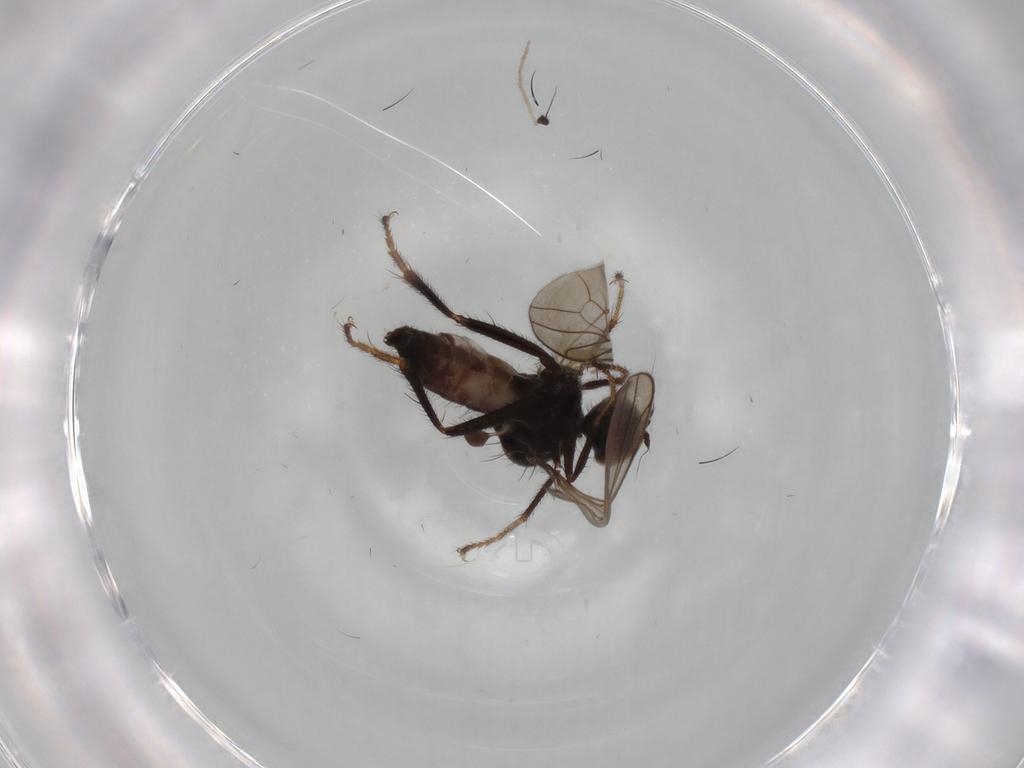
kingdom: Animalia
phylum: Arthropoda
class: Insecta
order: Diptera
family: Hybotidae
